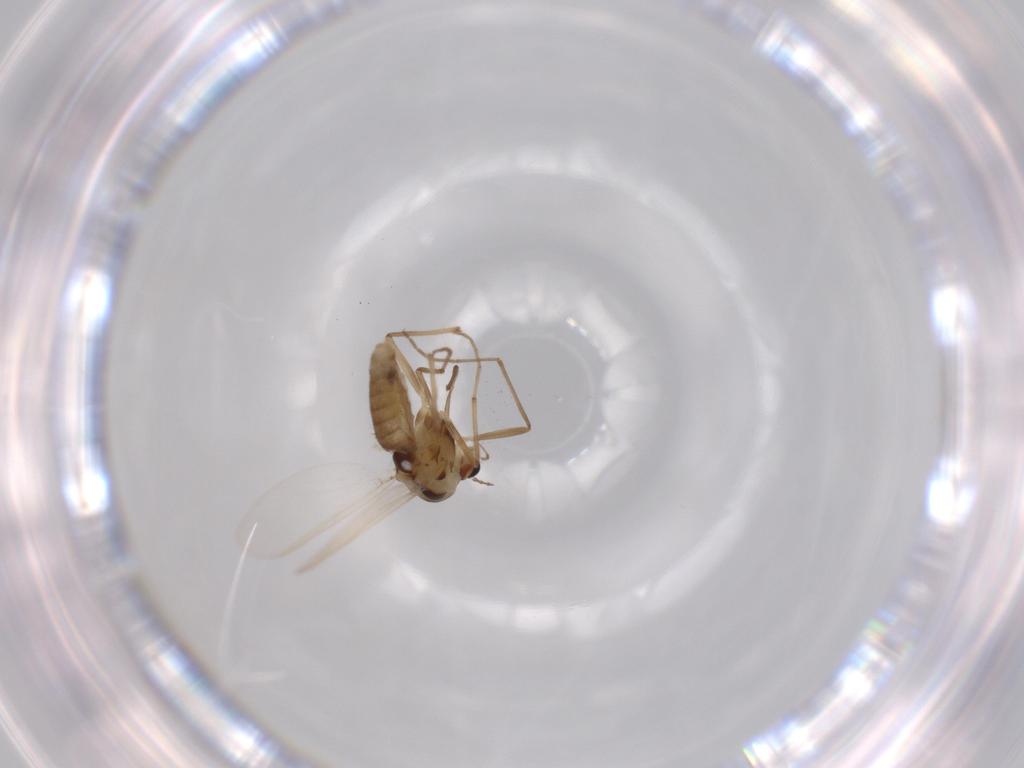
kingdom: Animalia
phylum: Arthropoda
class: Insecta
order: Diptera
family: Chironomidae
